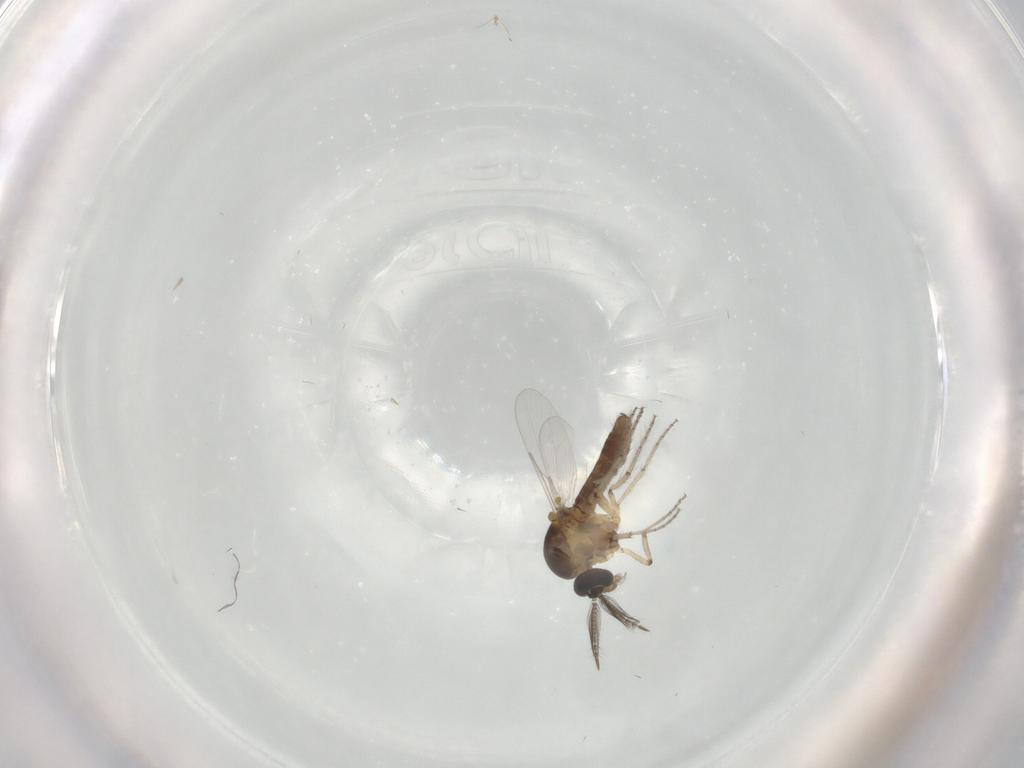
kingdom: Animalia
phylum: Arthropoda
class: Insecta
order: Diptera
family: Ceratopogonidae
